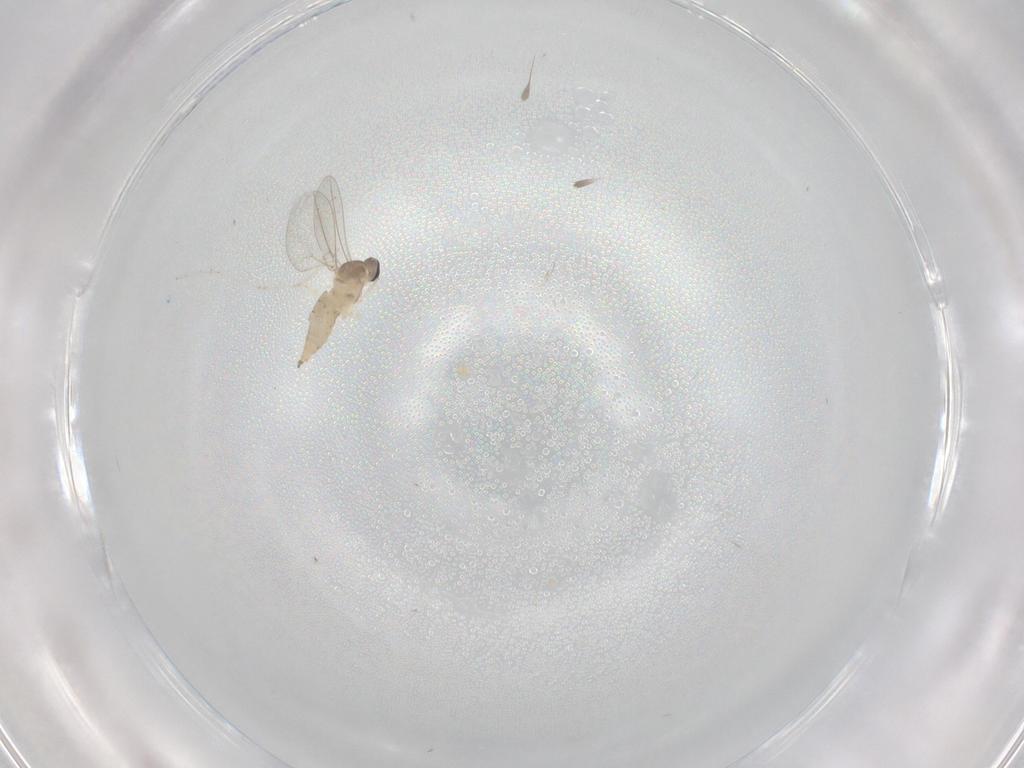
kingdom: Animalia
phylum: Arthropoda
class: Insecta
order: Diptera
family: Cecidomyiidae
